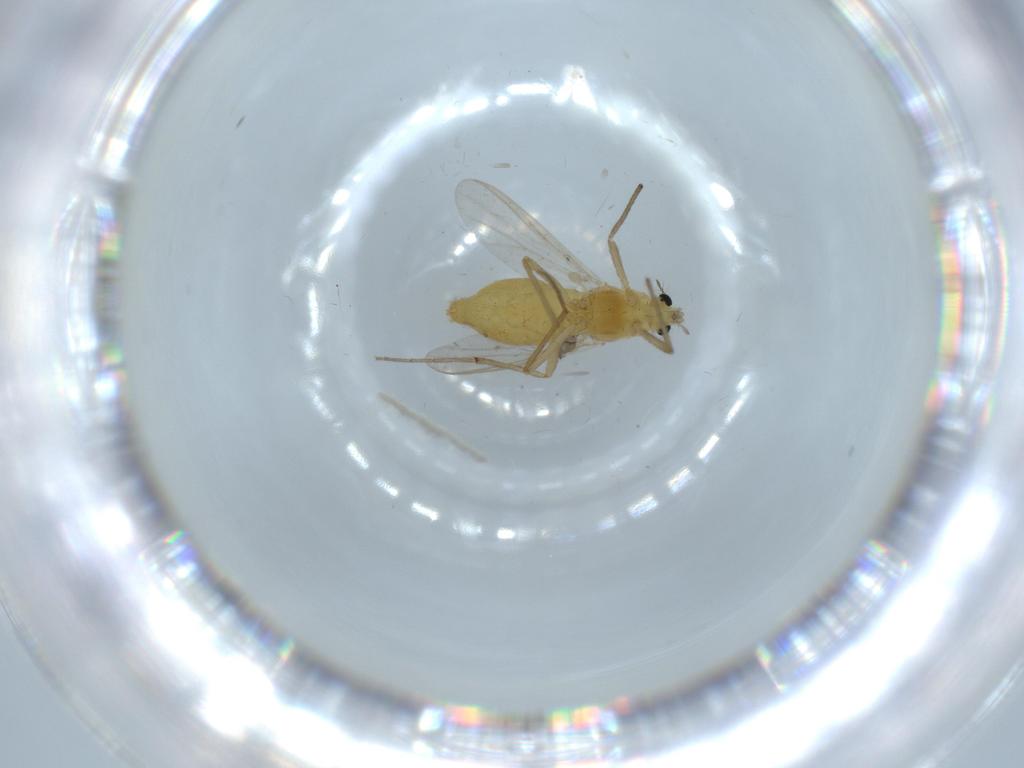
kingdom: Animalia
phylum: Arthropoda
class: Insecta
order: Diptera
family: Chironomidae
